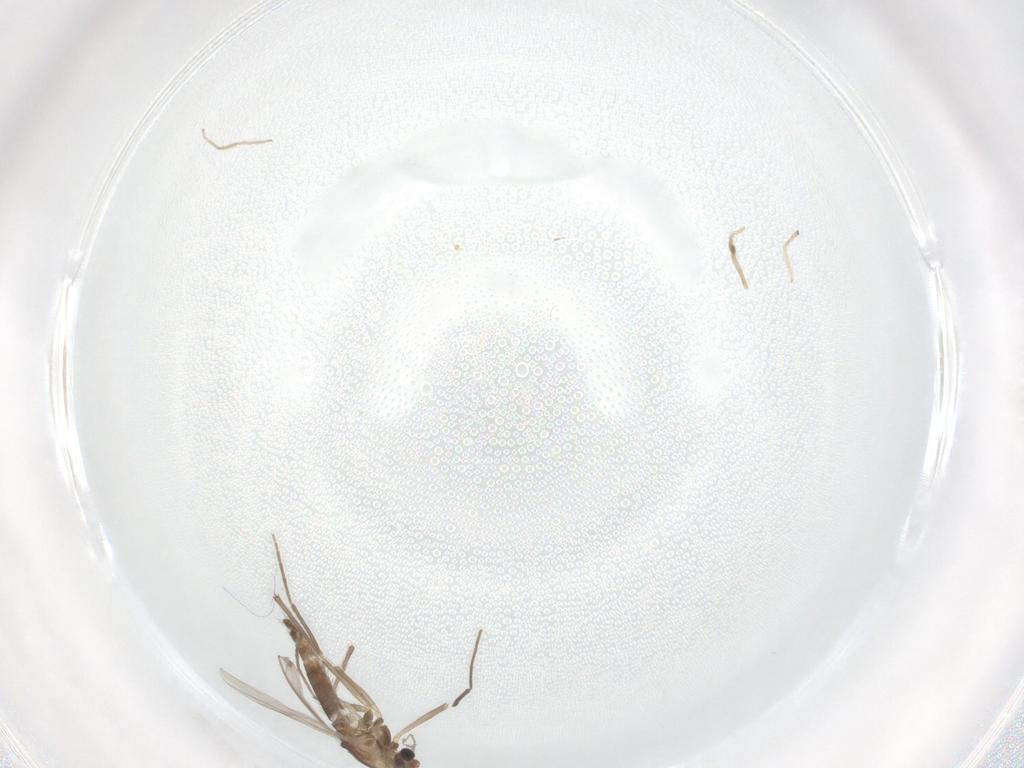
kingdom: Animalia
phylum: Arthropoda
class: Insecta
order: Diptera
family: Chironomidae
